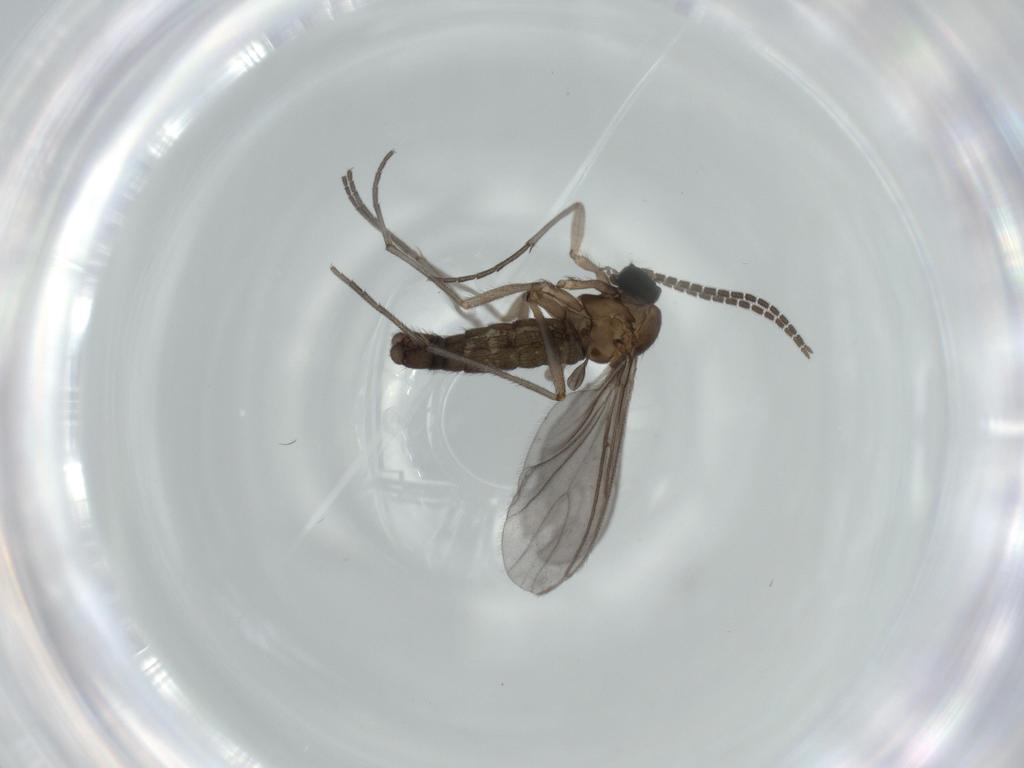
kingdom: Animalia
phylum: Arthropoda
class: Insecta
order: Diptera
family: Sciaridae
